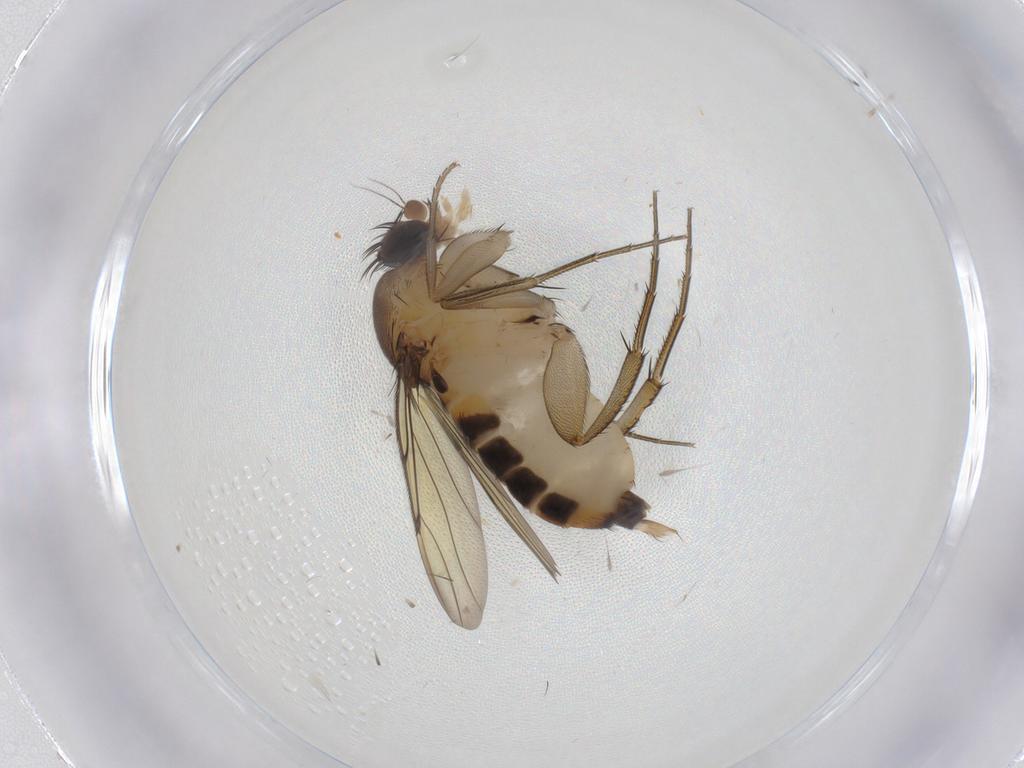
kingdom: Animalia
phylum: Arthropoda
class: Insecta
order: Diptera
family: Phoridae
